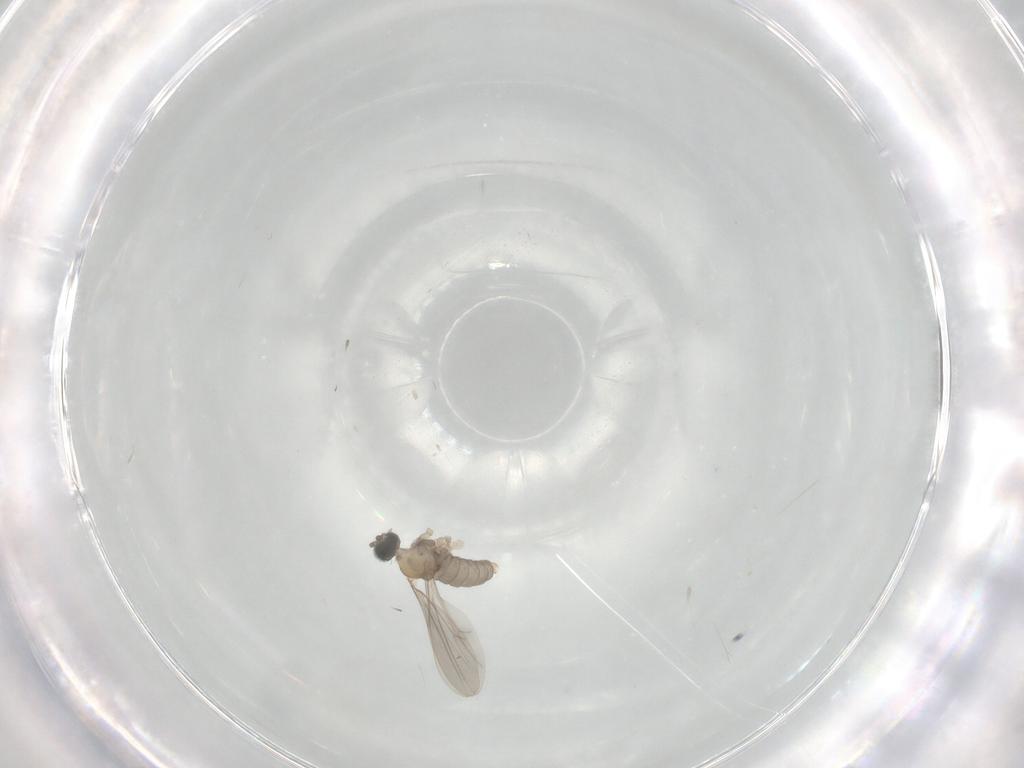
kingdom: Animalia
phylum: Arthropoda
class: Insecta
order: Diptera
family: Cecidomyiidae
